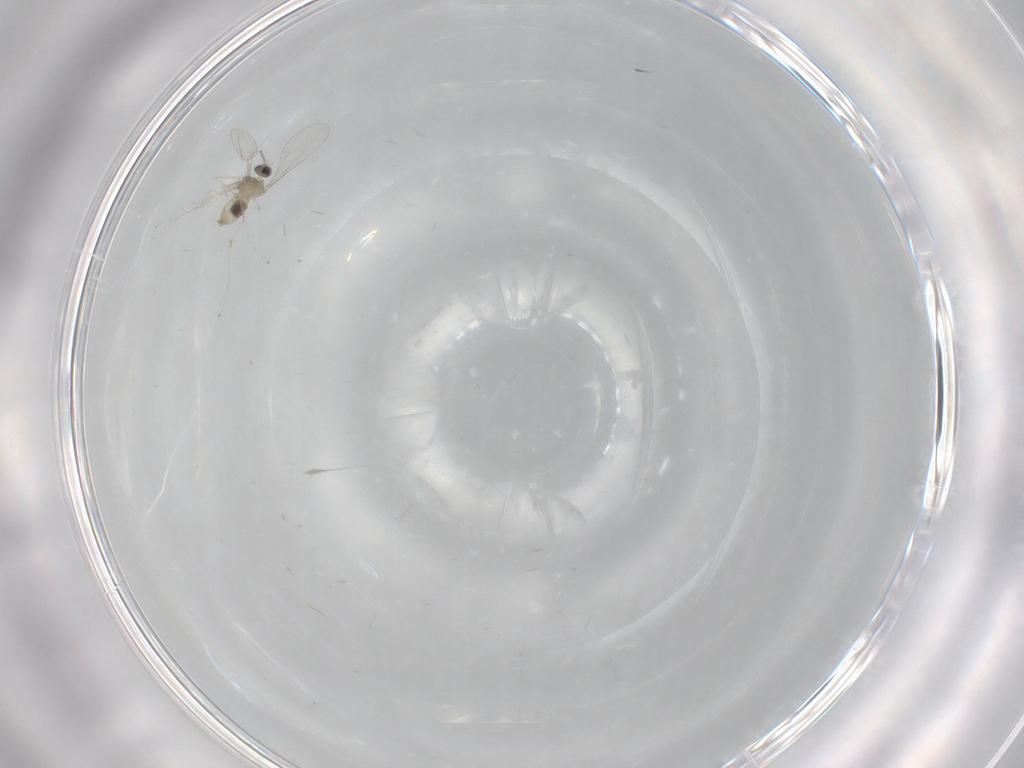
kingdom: Animalia
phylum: Arthropoda
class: Insecta
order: Diptera
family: Cecidomyiidae
